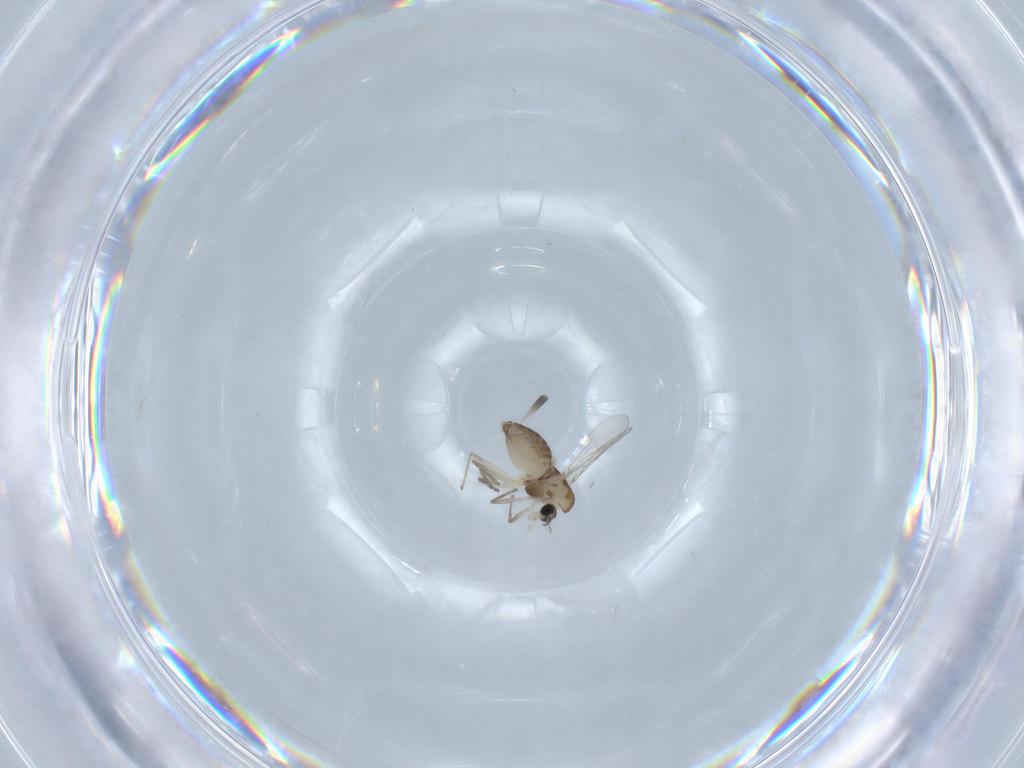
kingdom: Animalia
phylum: Arthropoda
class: Insecta
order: Diptera
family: Chironomidae
